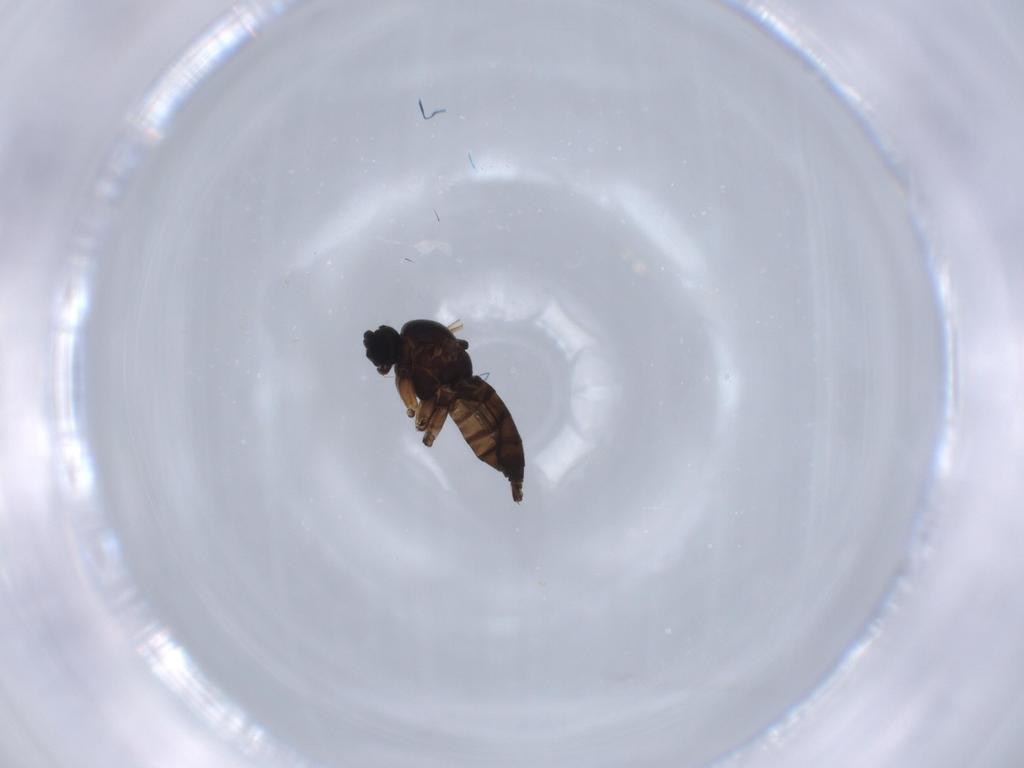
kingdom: Animalia
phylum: Arthropoda
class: Insecta
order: Diptera
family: Sciaridae
